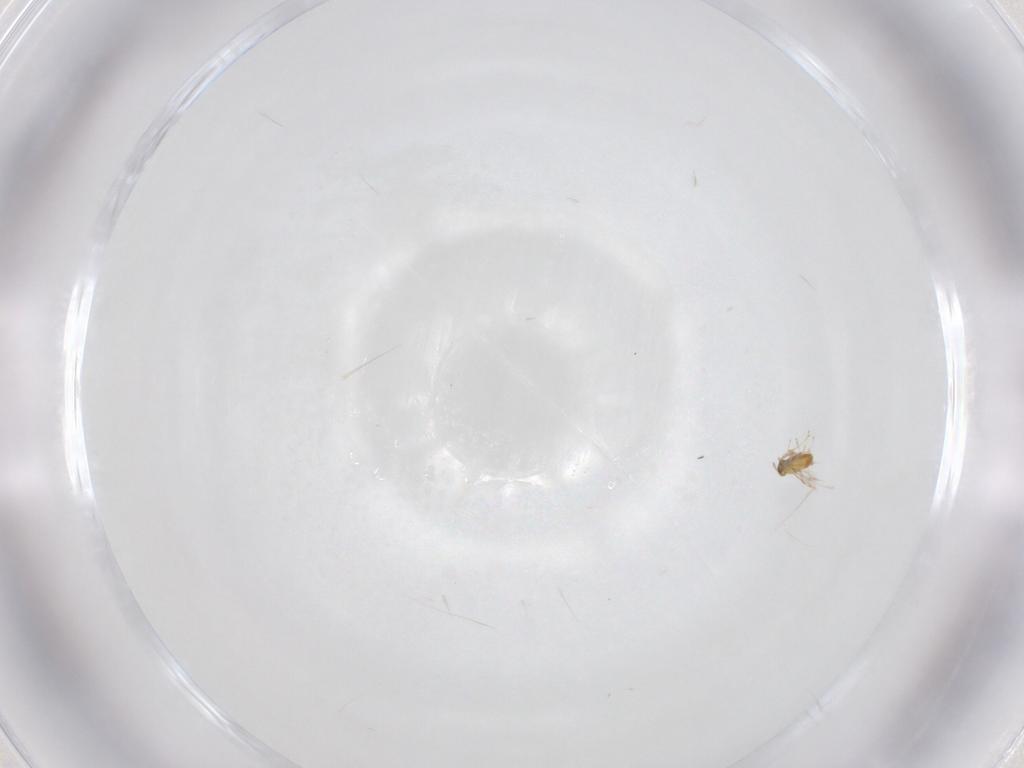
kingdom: Animalia
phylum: Arthropoda
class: Insecta
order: Hymenoptera
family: Trichogrammatidae
